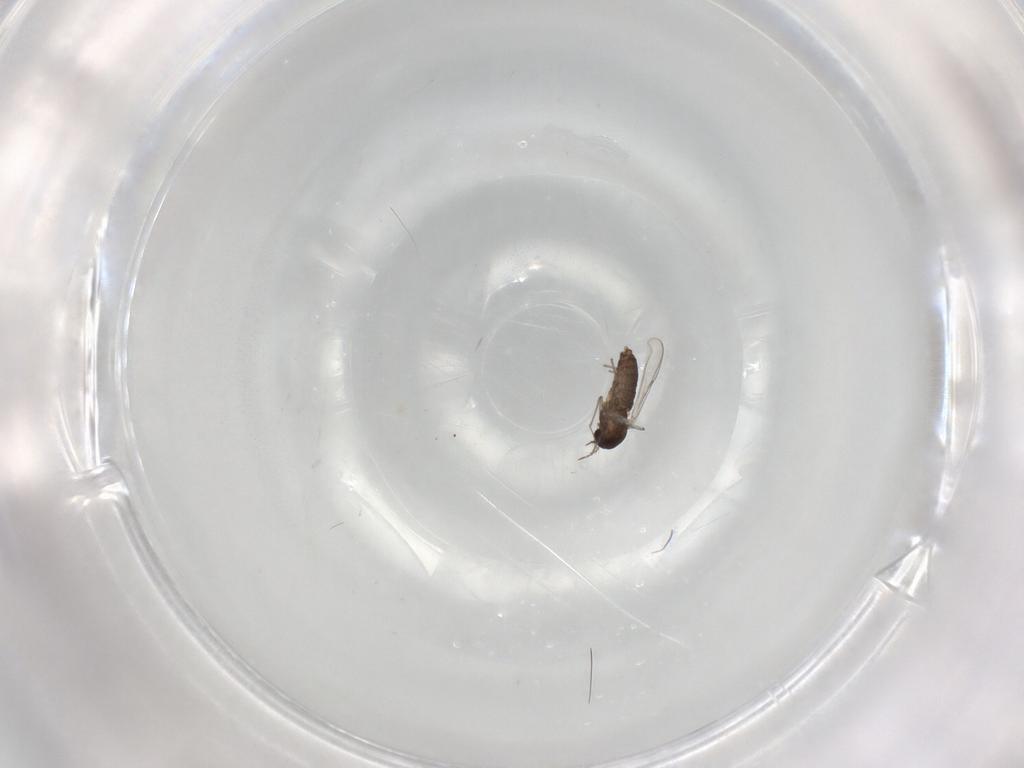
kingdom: Animalia
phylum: Arthropoda
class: Insecta
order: Diptera
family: Chironomidae
